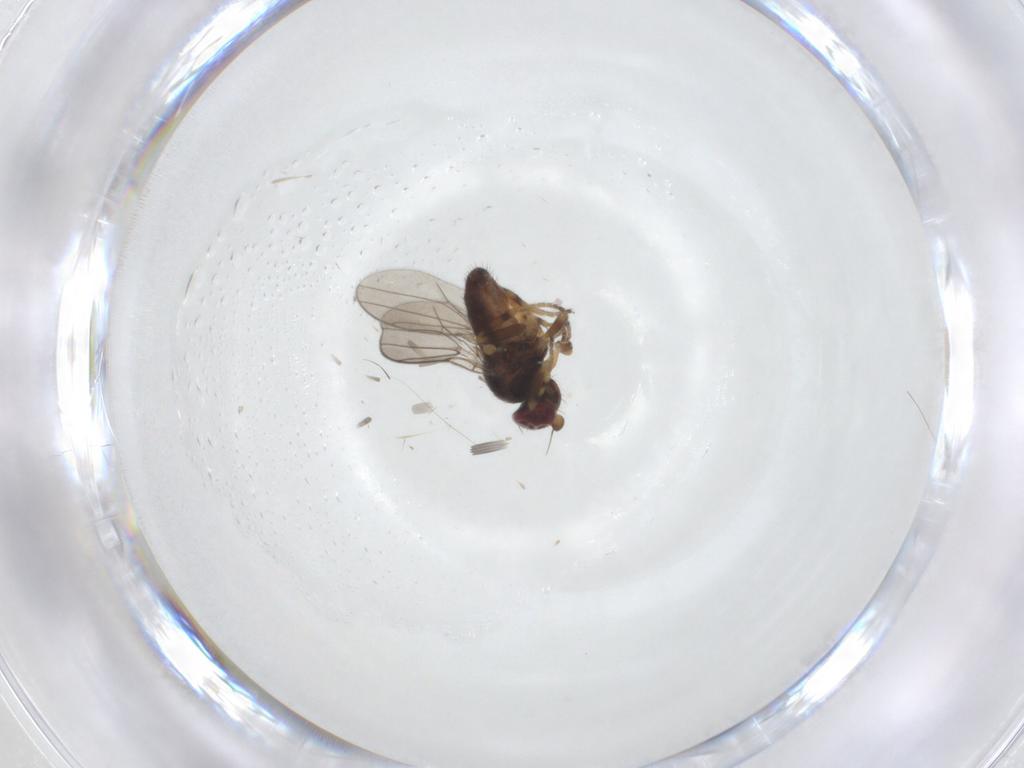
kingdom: Animalia
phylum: Arthropoda
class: Insecta
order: Diptera
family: Chloropidae
